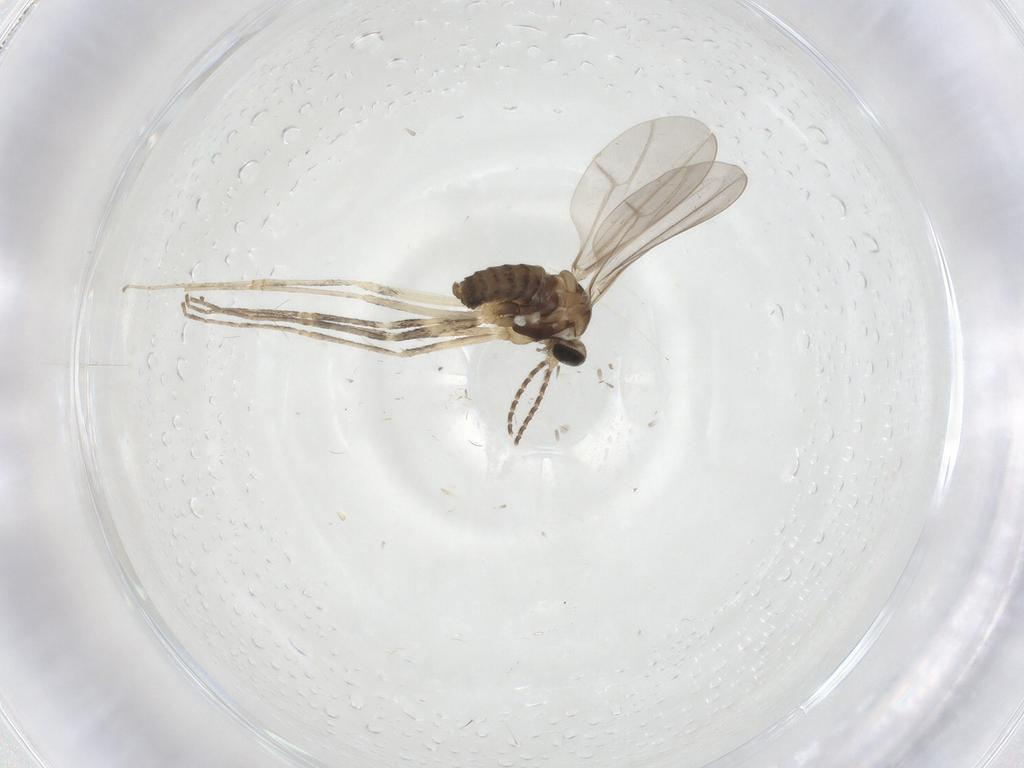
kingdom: Animalia
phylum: Arthropoda
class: Insecta
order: Diptera
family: Cecidomyiidae
